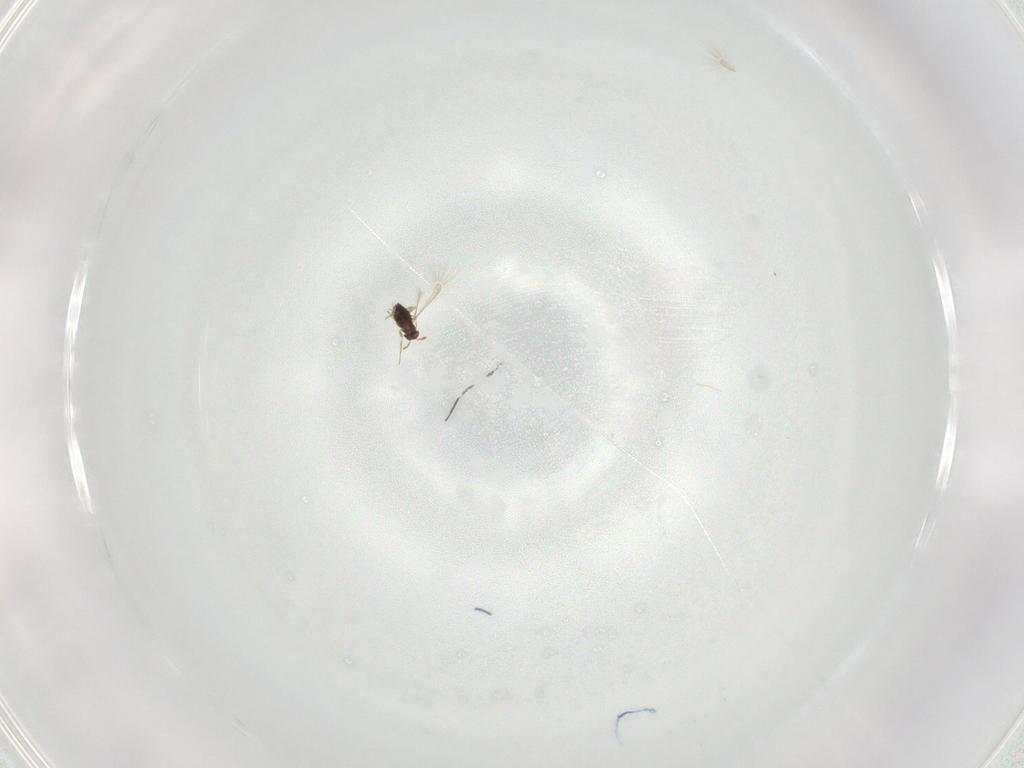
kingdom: Animalia
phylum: Arthropoda
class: Insecta
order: Hymenoptera
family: Mymaridae
